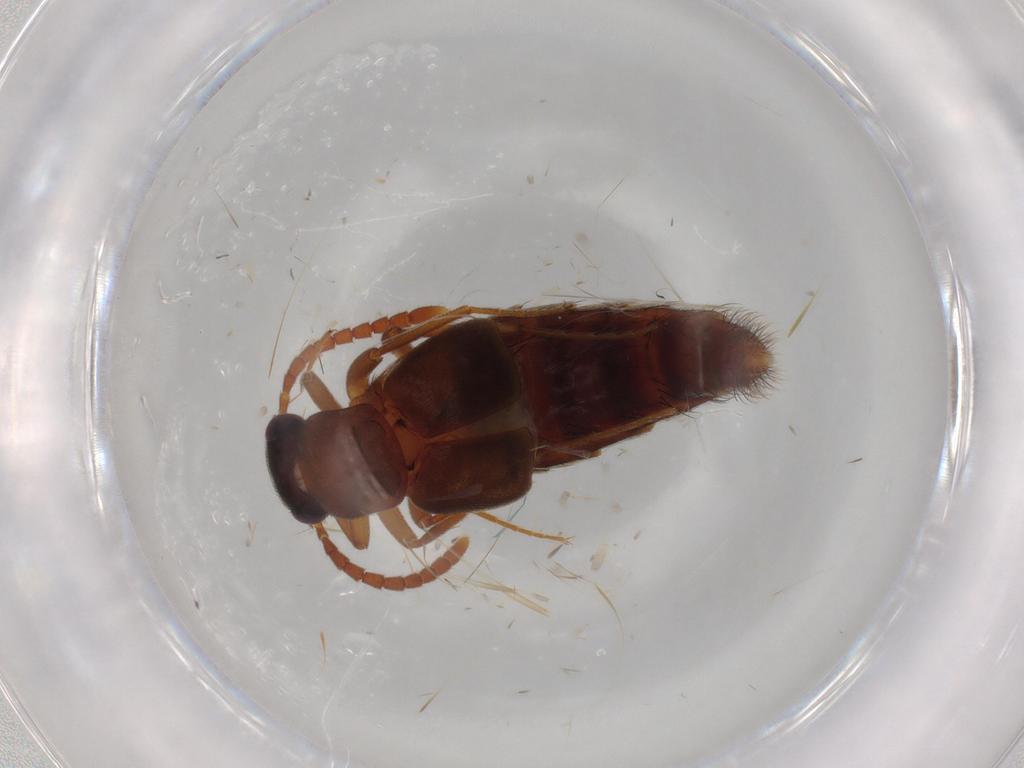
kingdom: Animalia
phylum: Arthropoda
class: Insecta
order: Coleoptera
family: Staphylinidae
